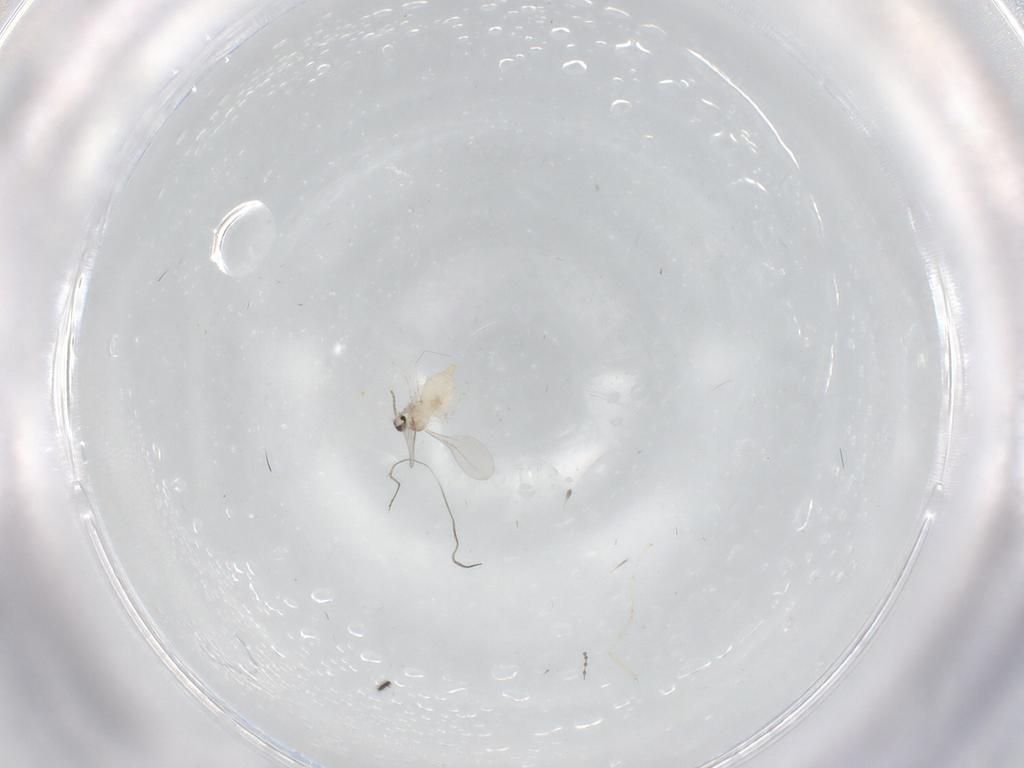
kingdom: Animalia
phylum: Arthropoda
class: Insecta
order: Diptera
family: Cecidomyiidae
